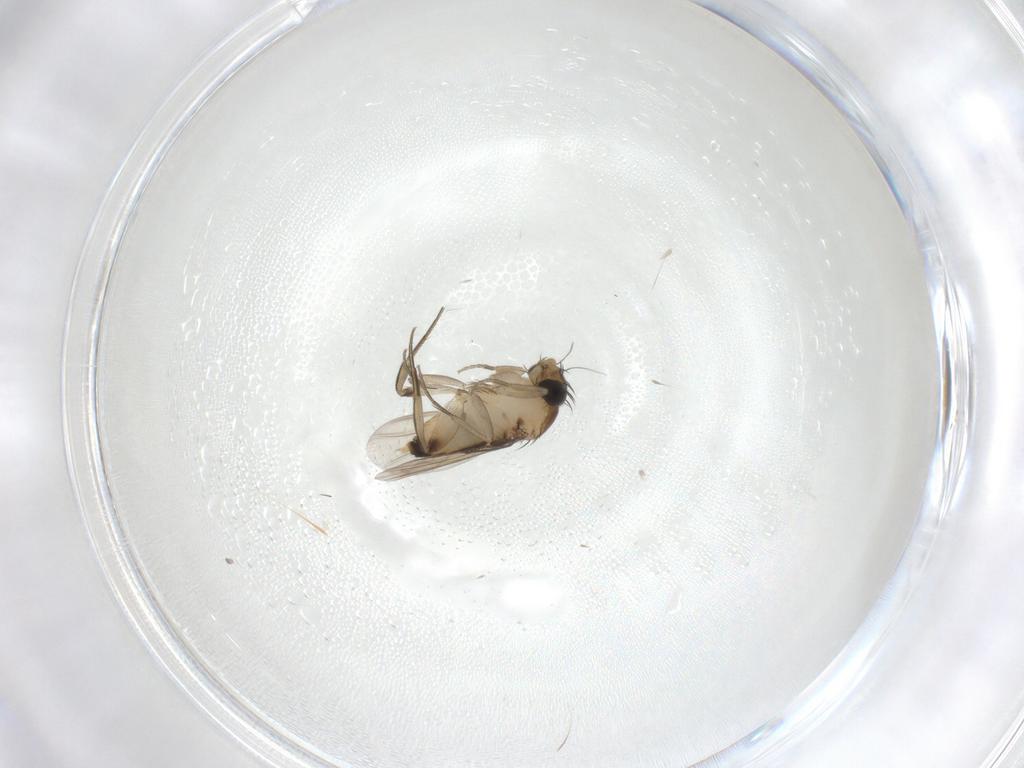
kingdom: Animalia
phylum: Arthropoda
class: Insecta
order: Diptera
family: Phoridae
